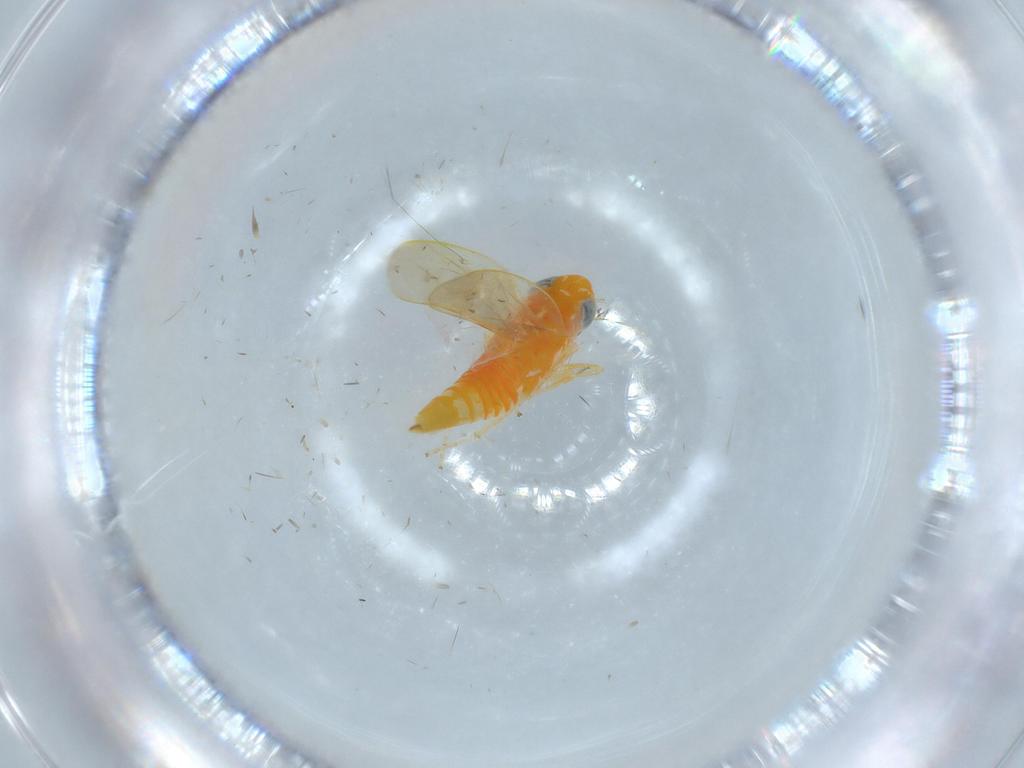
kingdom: Animalia
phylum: Arthropoda
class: Insecta
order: Hemiptera
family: Cicadellidae
